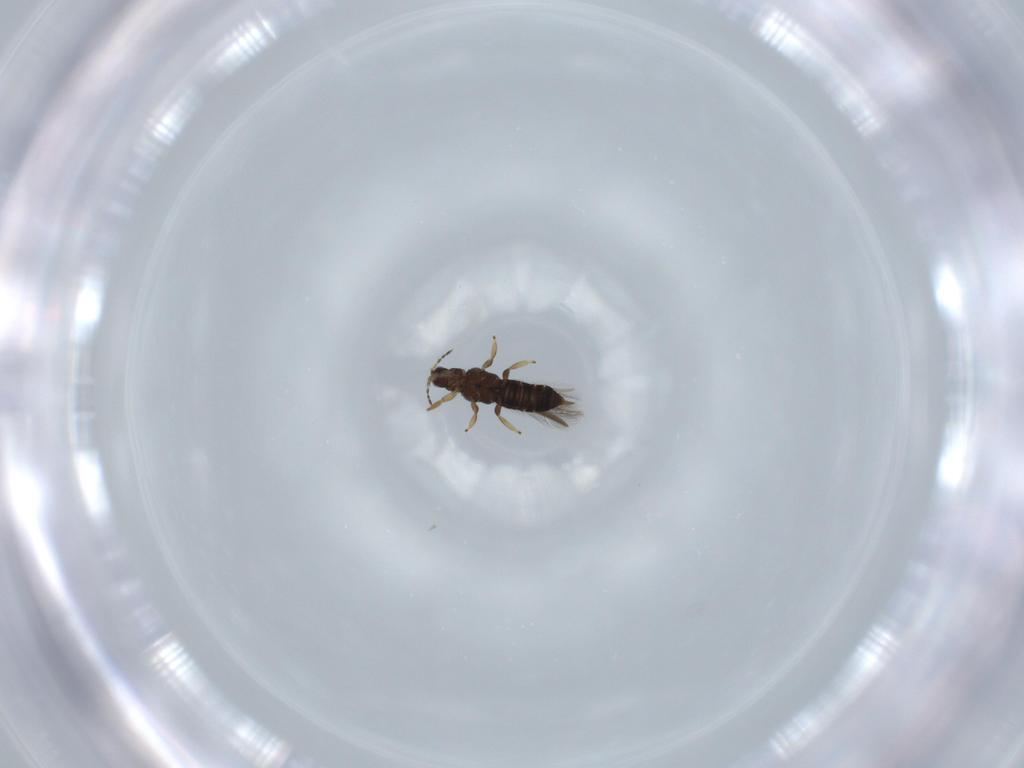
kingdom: Animalia
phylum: Arthropoda
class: Insecta
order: Thysanoptera
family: Thripidae
